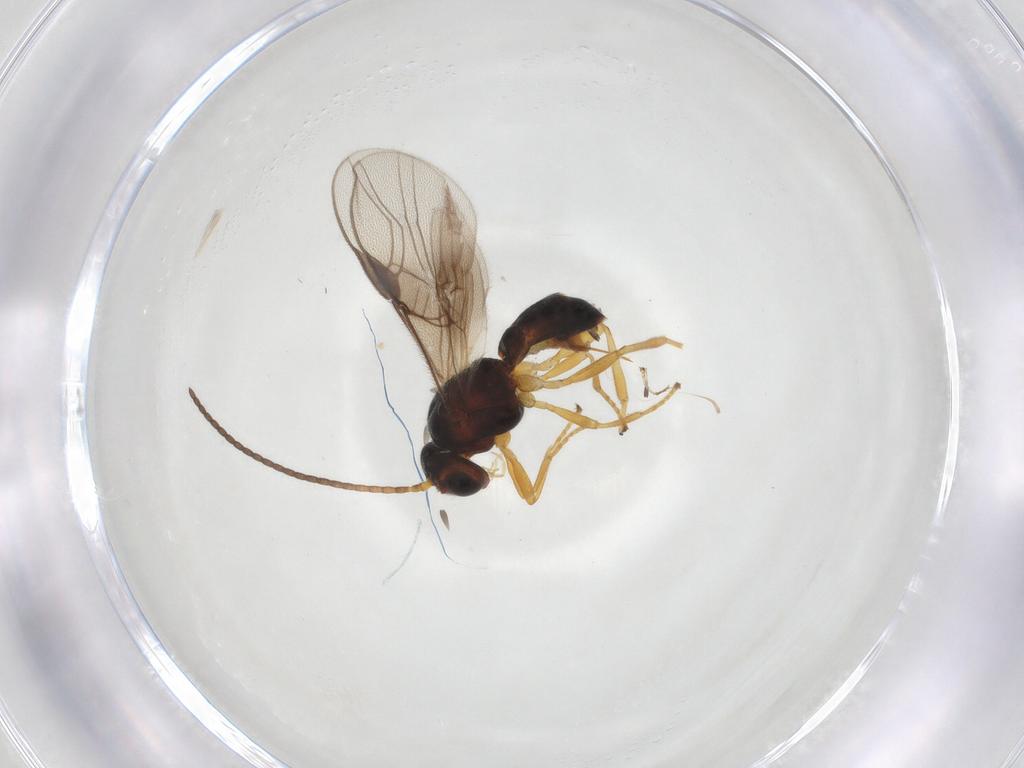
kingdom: Animalia
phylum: Arthropoda
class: Insecta
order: Hymenoptera
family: Braconidae
